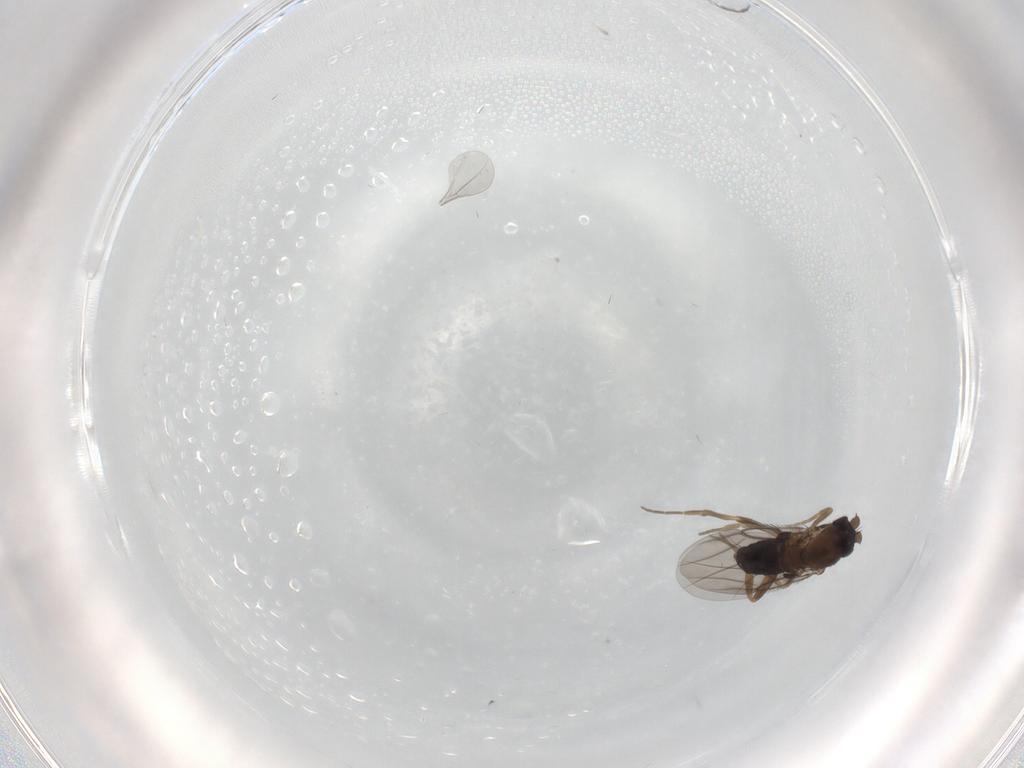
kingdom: Animalia
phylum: Arthropoda
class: Insecta
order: Diptera
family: Phoridae
